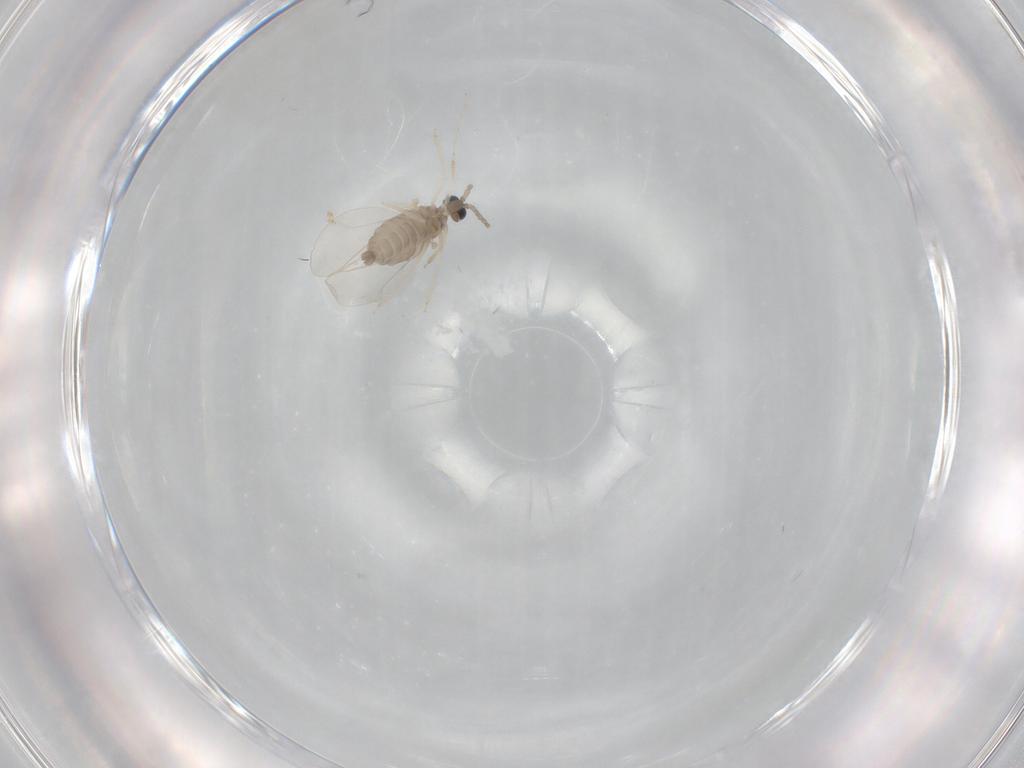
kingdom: Animalia
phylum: Arthropoda
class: Insecta
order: Diptera
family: Cecidomyiidae
